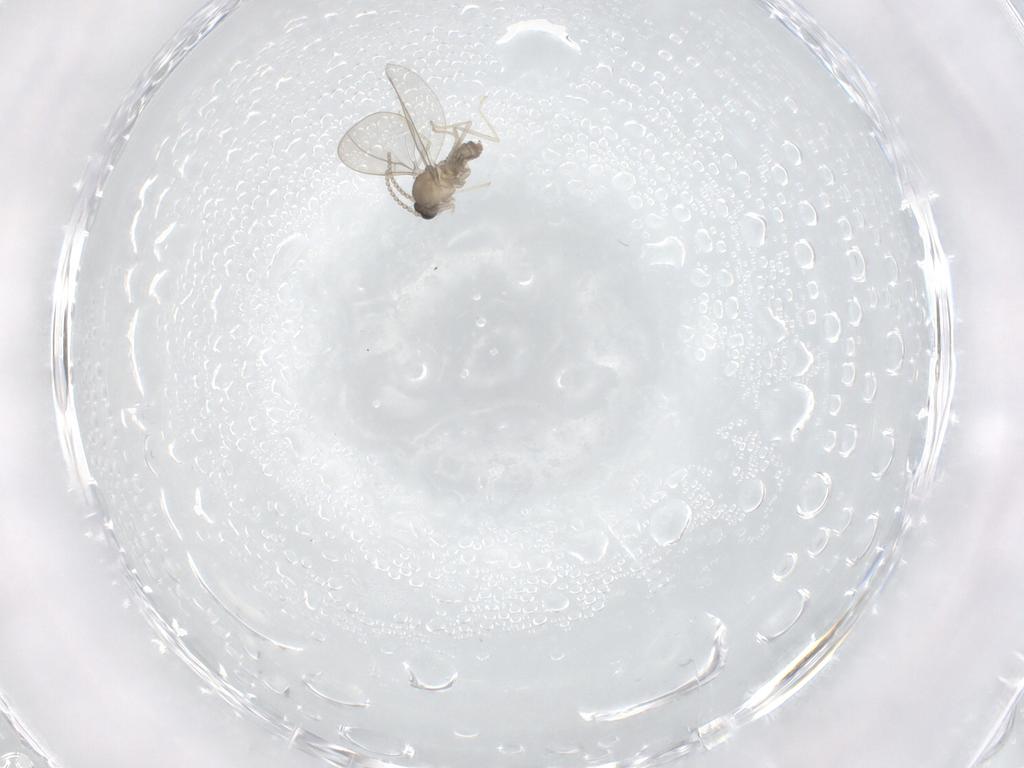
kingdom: Animalia
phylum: Arthropoda
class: Insecta
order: Diptera
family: Cecidomyiidae
